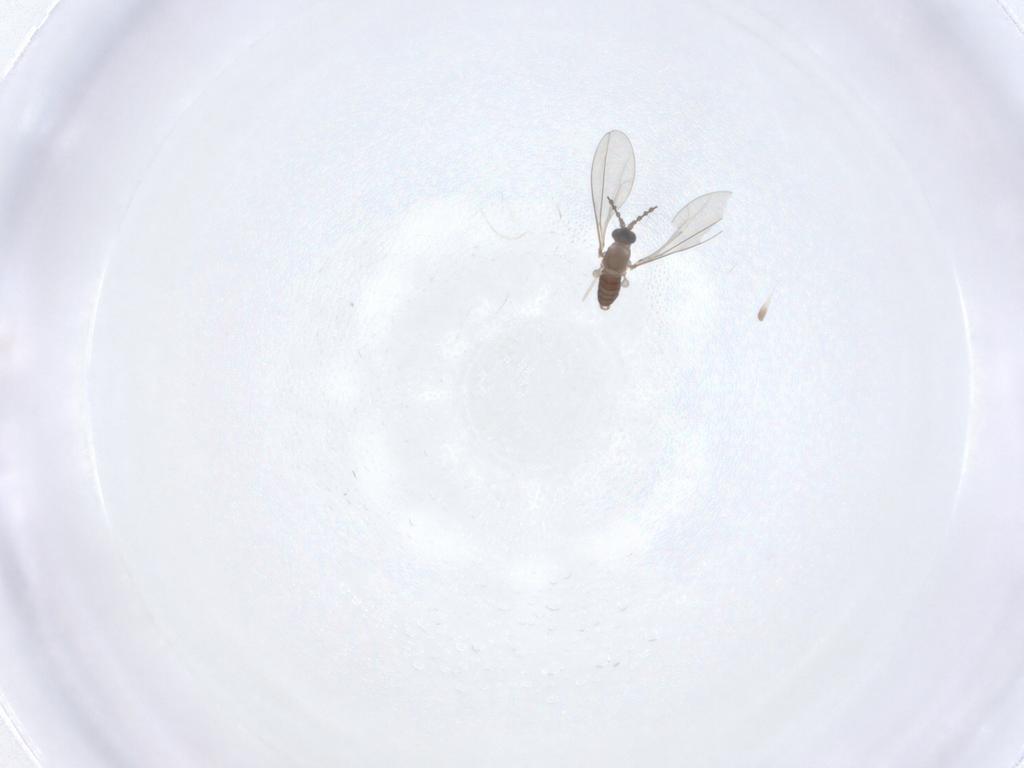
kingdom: Animalia
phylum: Arthropoda
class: Insecta
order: Diptera
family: Cecidomyiidae
